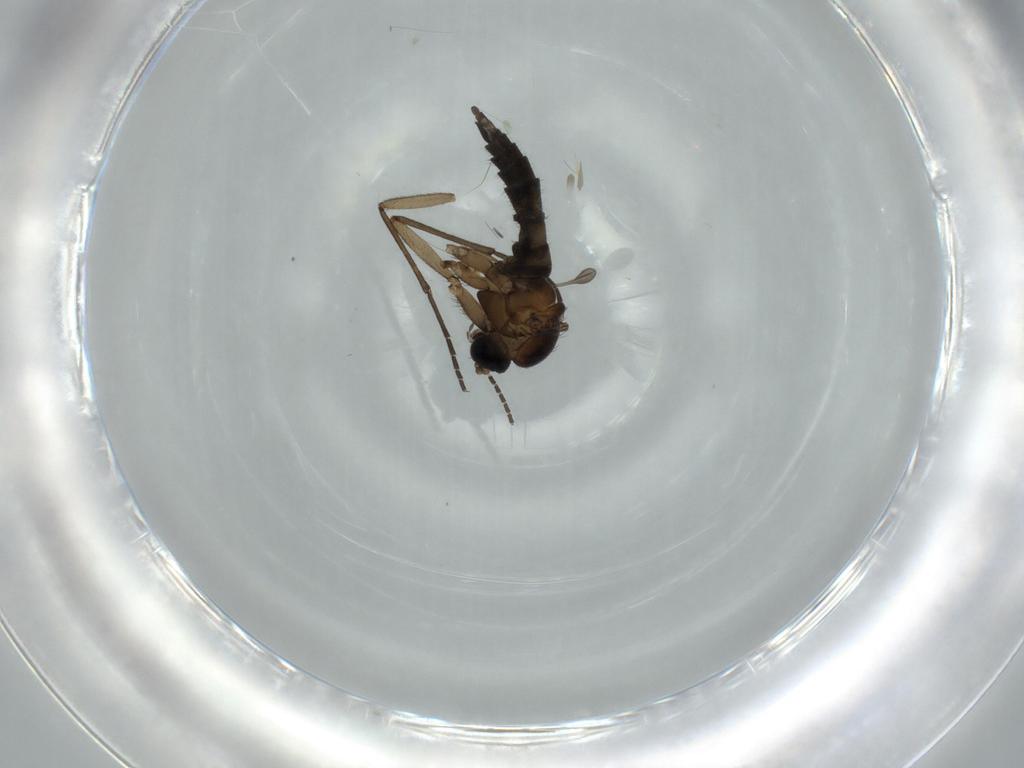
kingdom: Animalia
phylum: Arthropoda
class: Insecta
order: Diptera
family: Sciaridae
